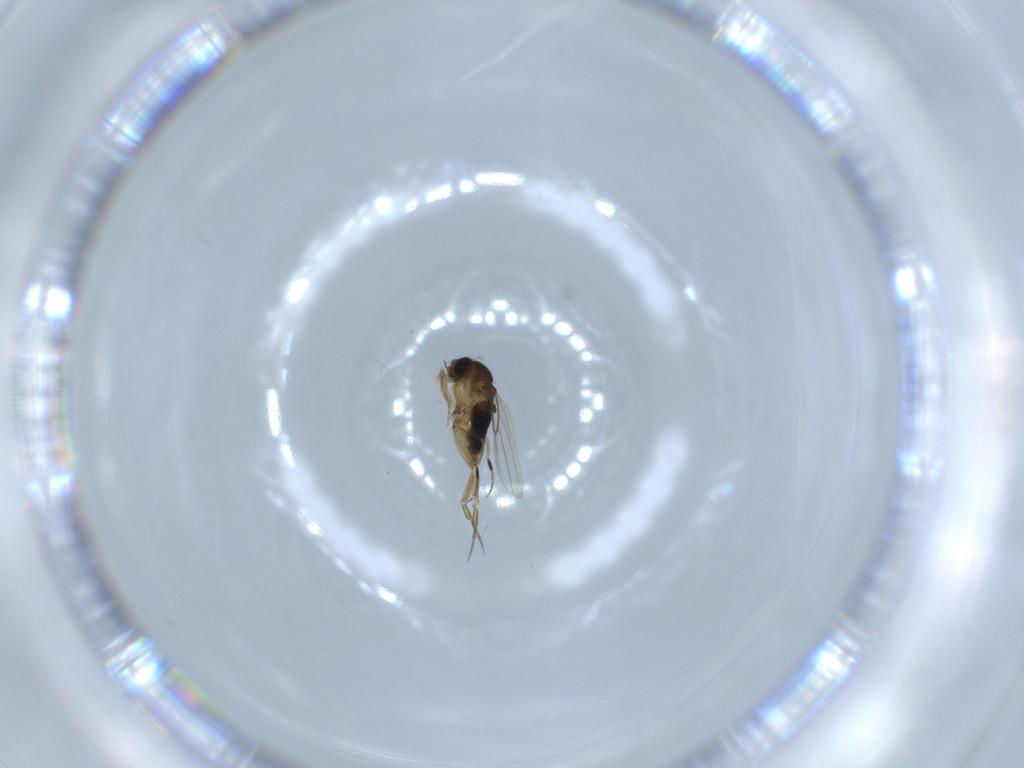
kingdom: Animalia
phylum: Arthropoda
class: Insecta
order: Diptera
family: Phoridae
